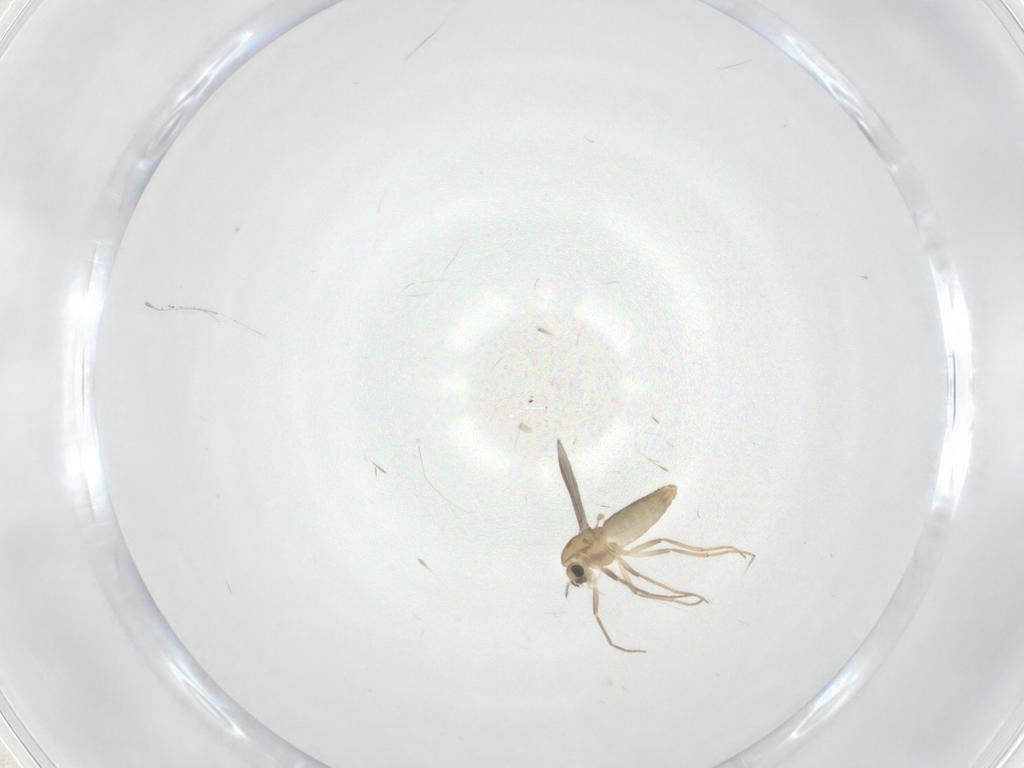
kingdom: Animalia
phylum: Arthropoda
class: Insecta
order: Diptera
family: Chironomidae
